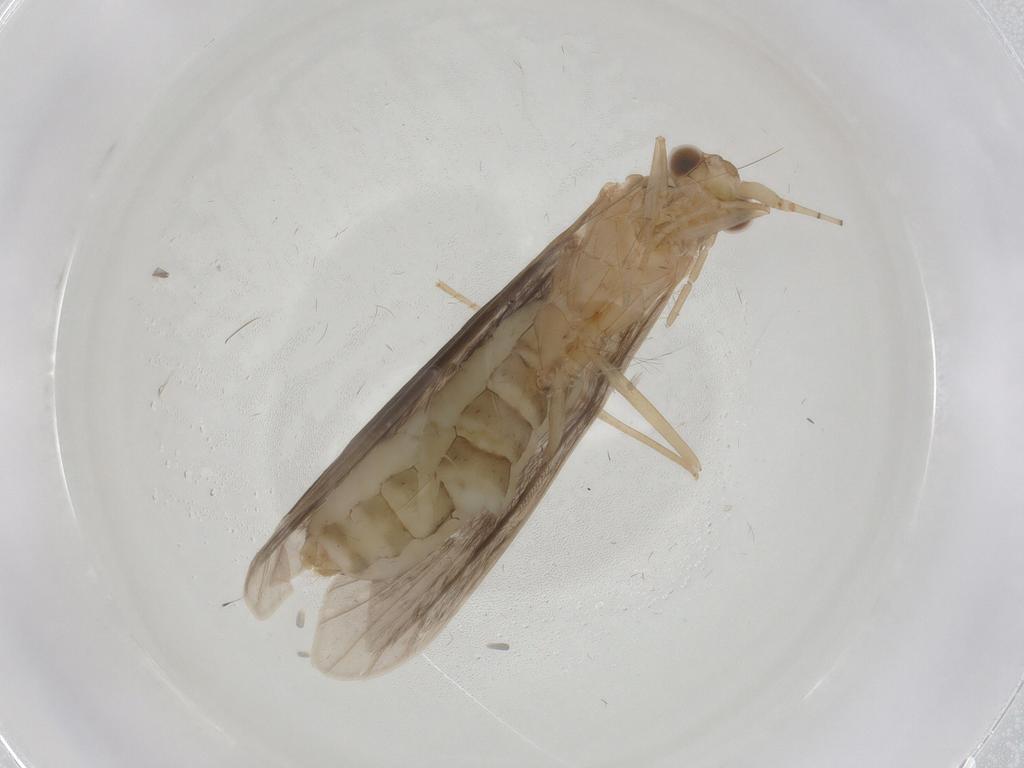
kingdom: Animalia
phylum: Arthropoda
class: Insecta
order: Trichoptera
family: Leptoceridae
